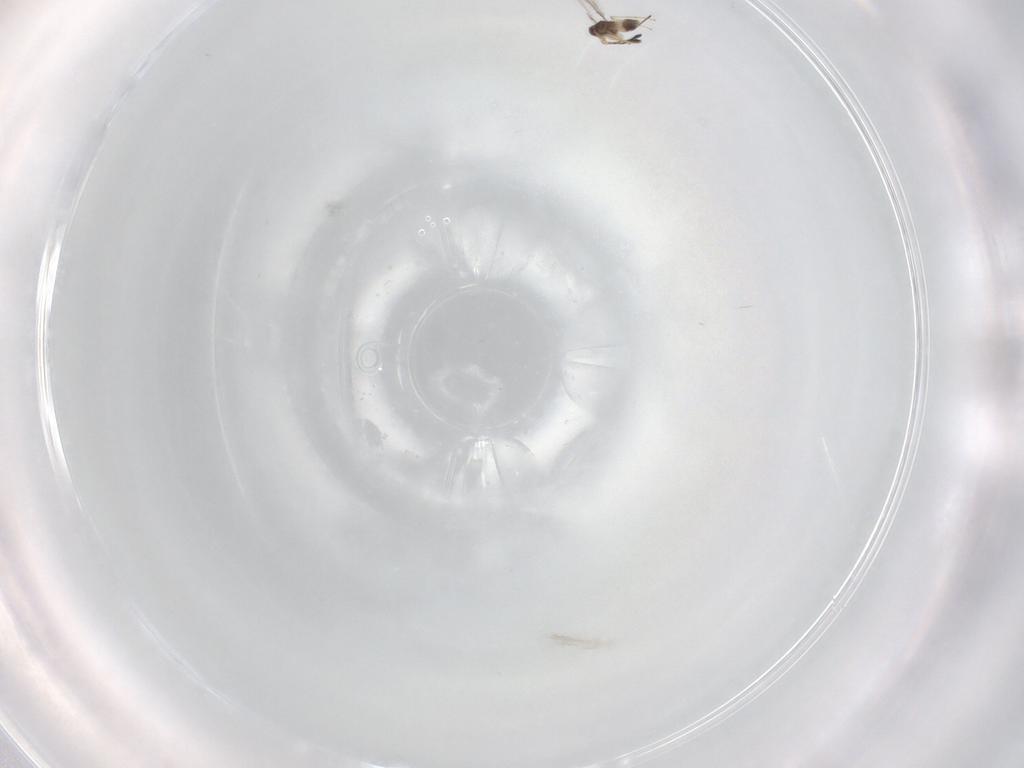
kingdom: Animalia
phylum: Arthropoda
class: Insecta
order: Hymenoptera
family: Mymaridae
